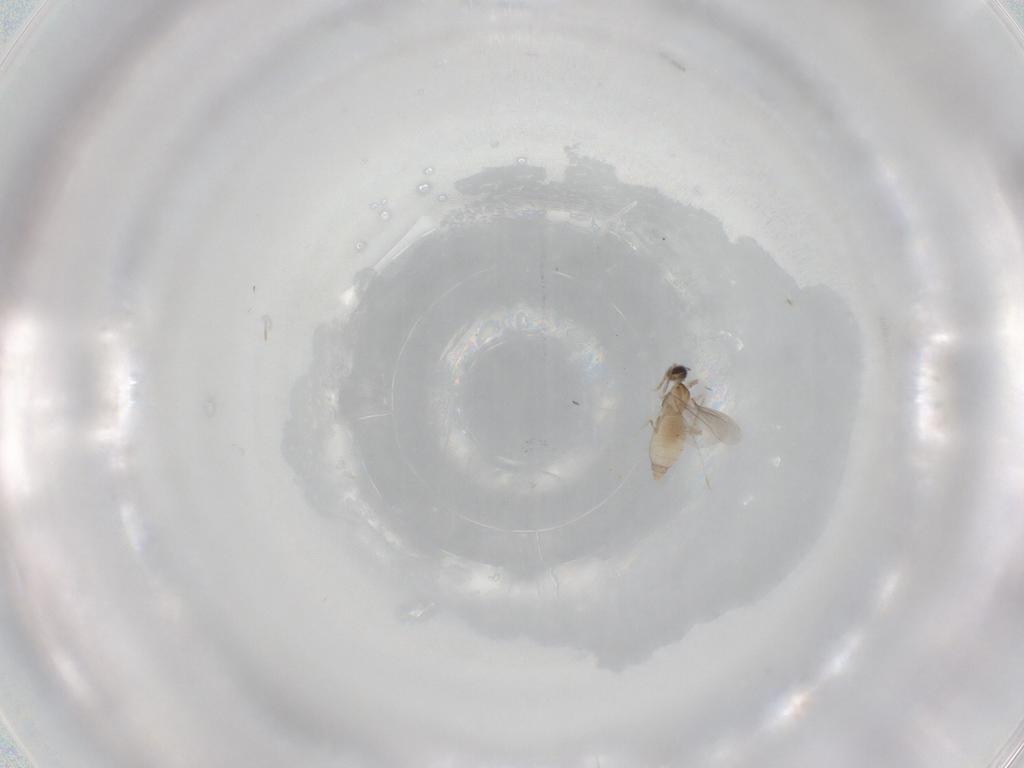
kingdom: Animalia
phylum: Arthropoda
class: Insecta
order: Diptera
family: Cecidomyiidae
